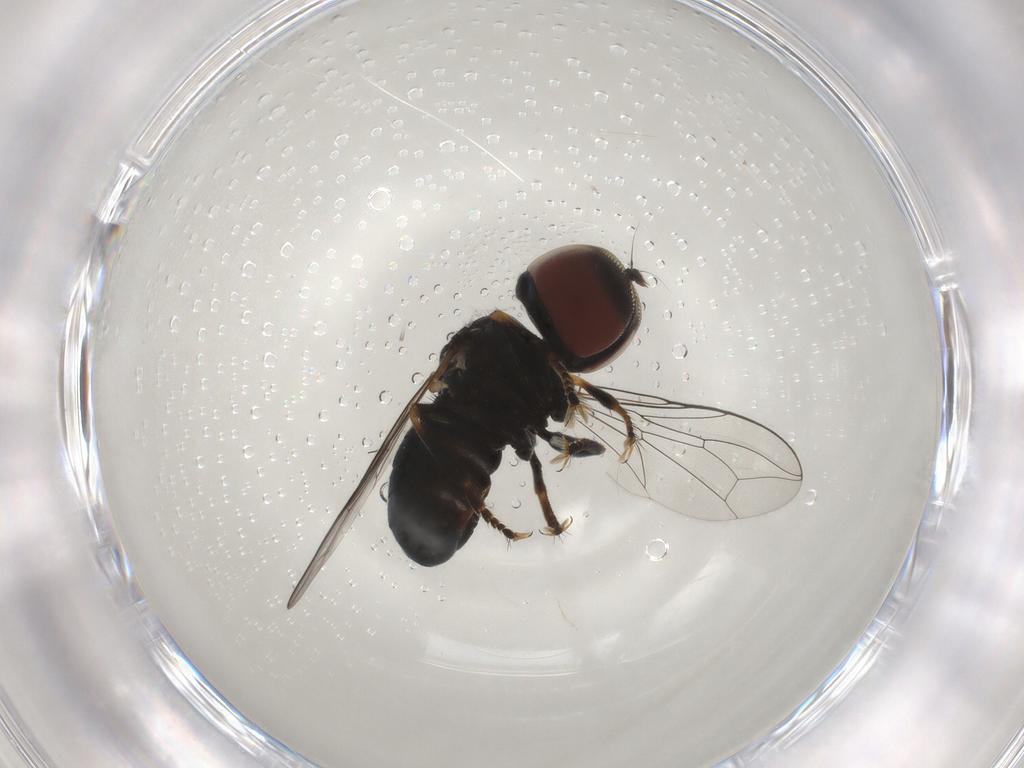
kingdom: Animalia
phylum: Arthropoda
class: Insecta
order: Diptera
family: Pipunculidae
